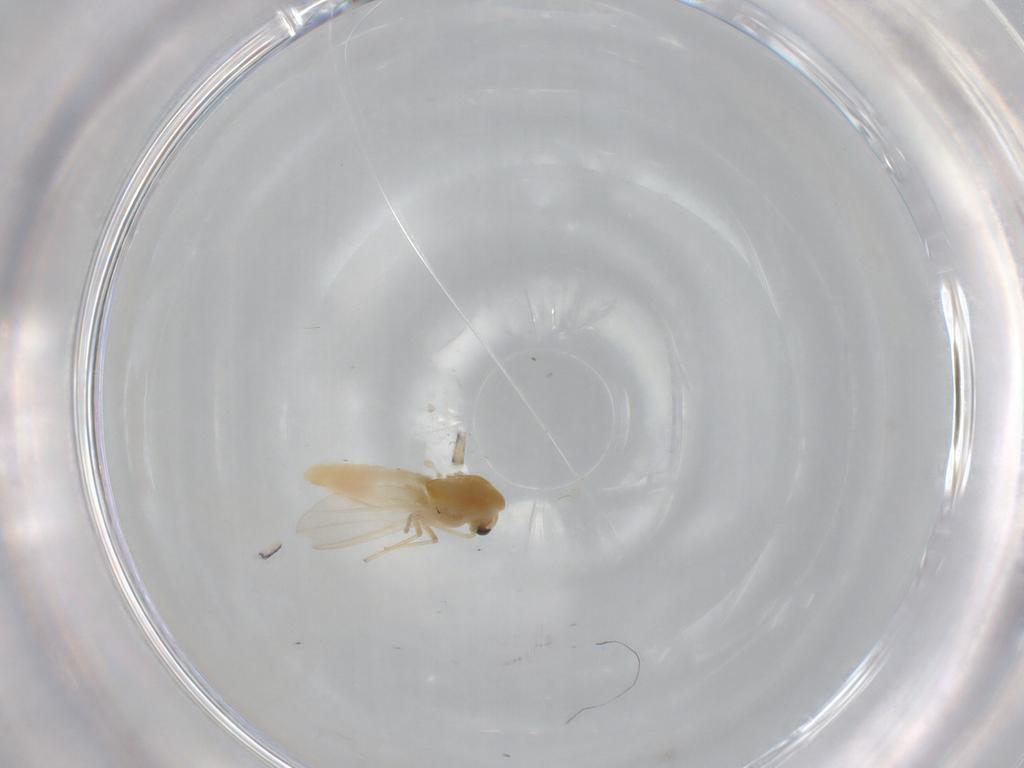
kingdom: Animalia
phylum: Arthropoda
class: Insecta
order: Diptera
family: Chironomidae
